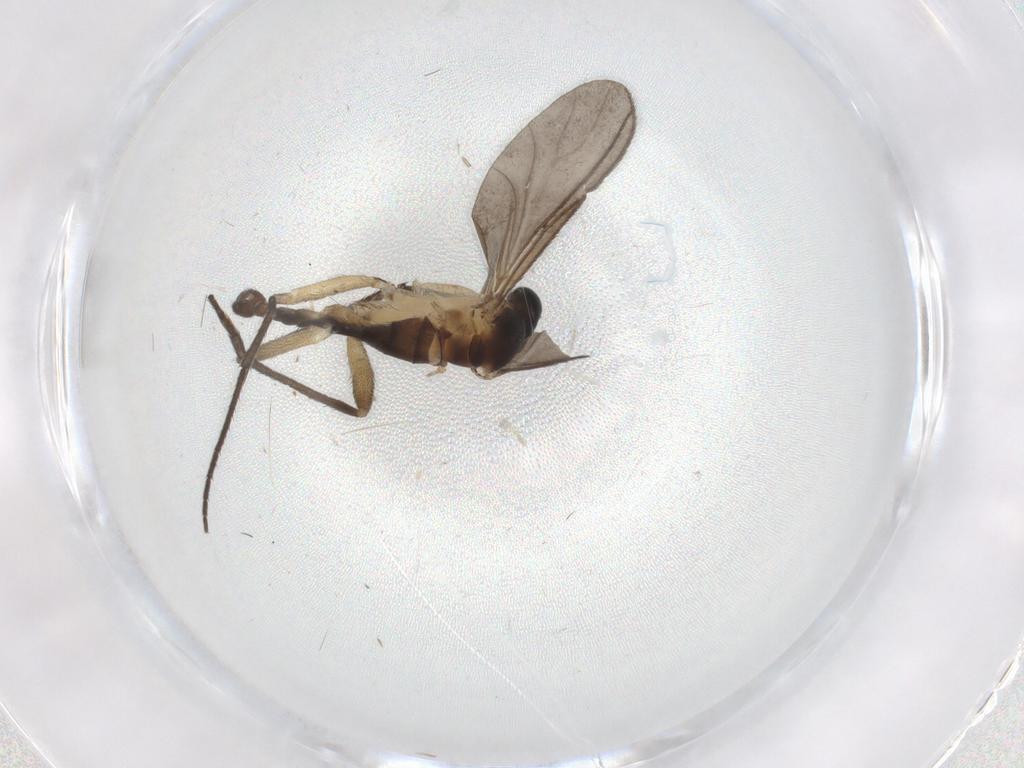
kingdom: Animalia
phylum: Arthropoda
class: Insecta
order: Diptera
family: Sciaridae
